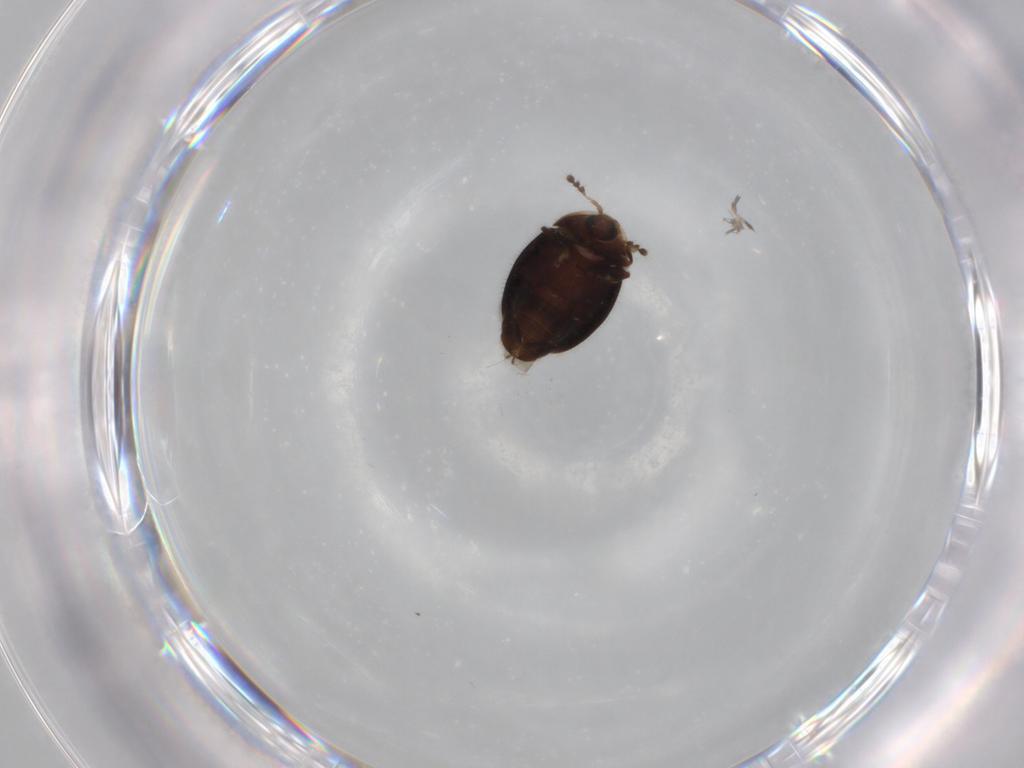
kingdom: Animalia
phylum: Arthropoda
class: Insecta
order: Coleoptera
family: Corylophidae
